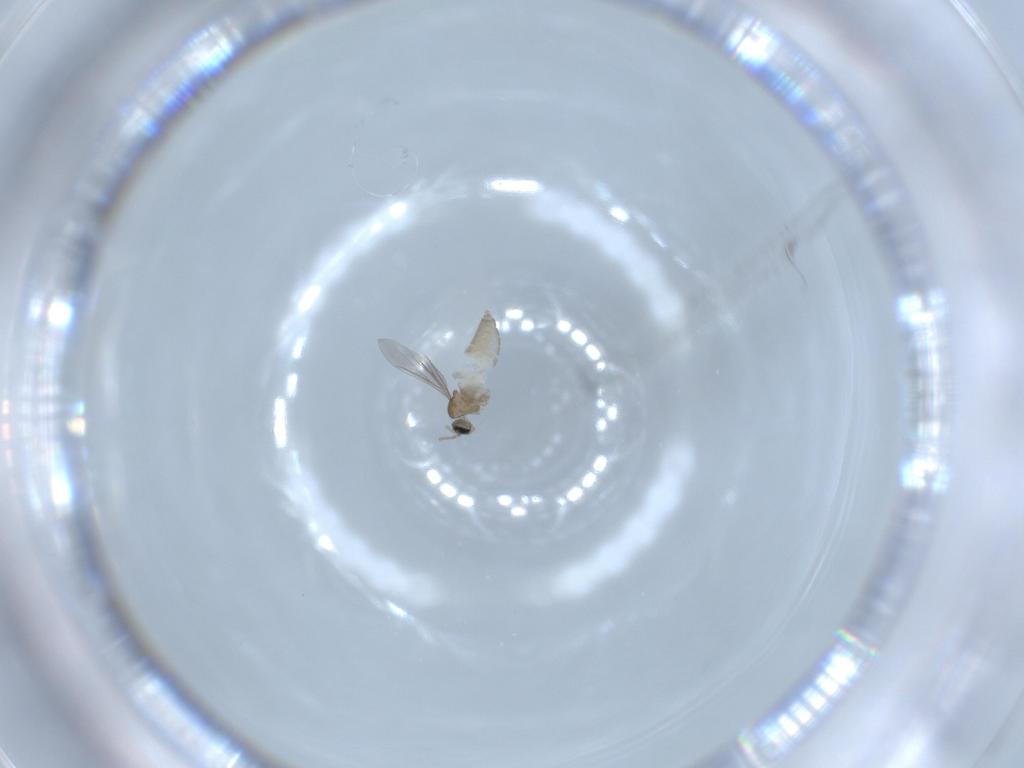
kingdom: Animalia
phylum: Arthropoda
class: Insecta
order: Diptera
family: Cecidomyiidae
